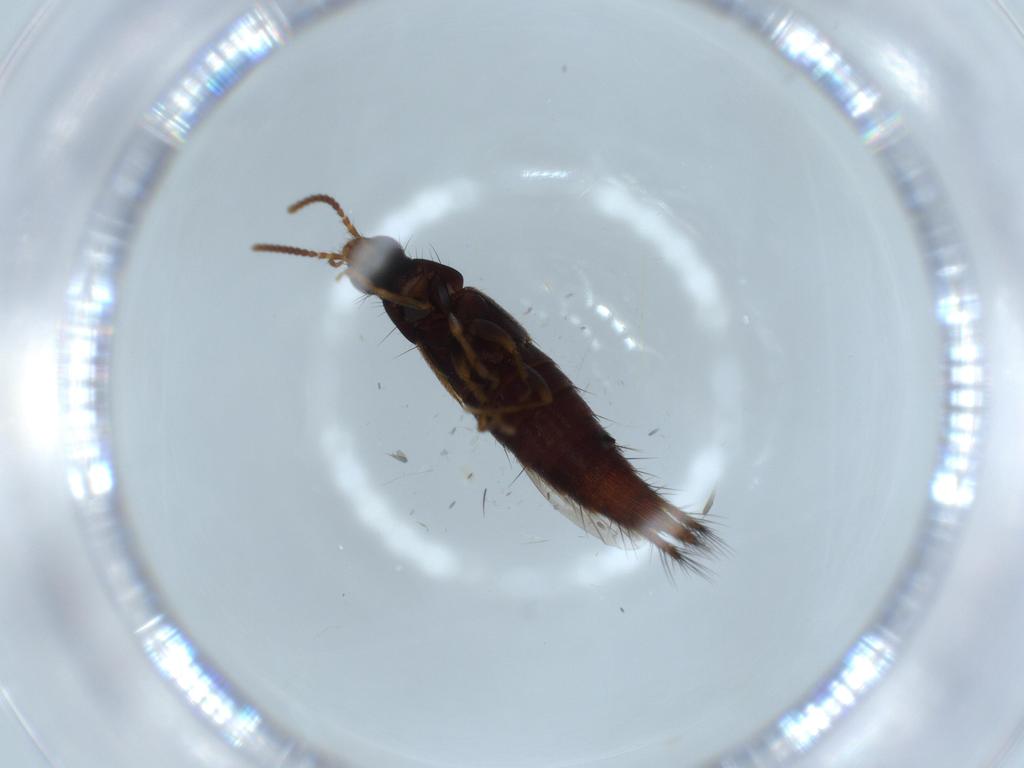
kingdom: Animalia
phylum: Arthropoda
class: Insecta
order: Coleoptera
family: Staphylinidae
